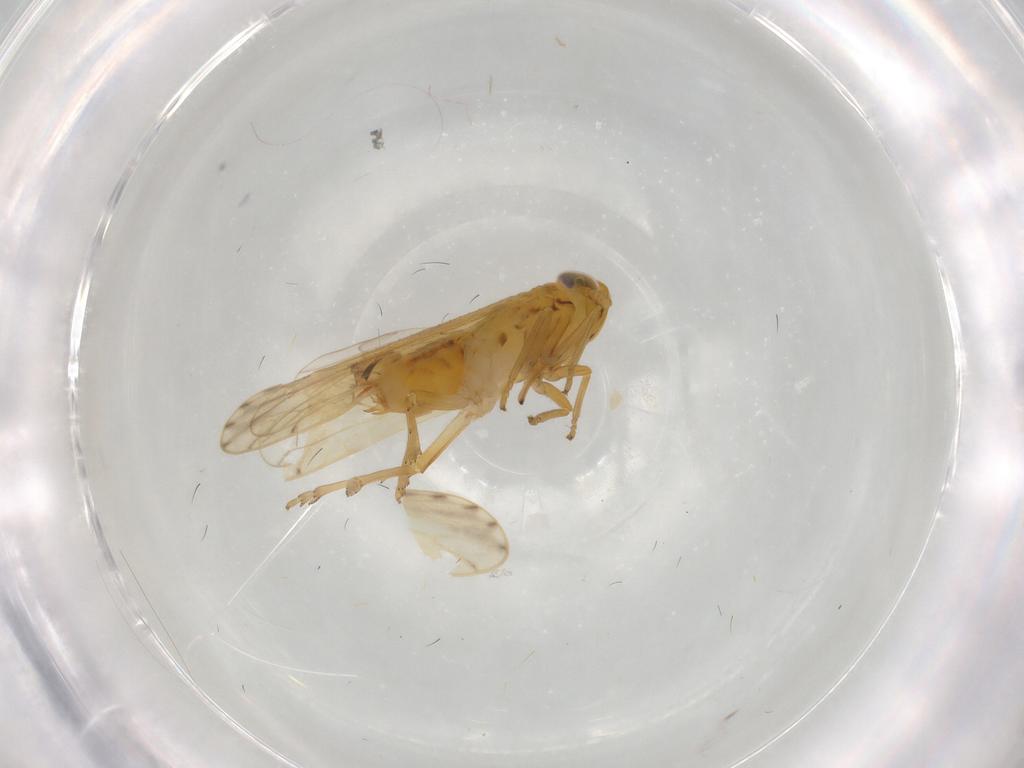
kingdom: Animalia
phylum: Arthropoda
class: Insecta
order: Hemiptera
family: Delphacidae
